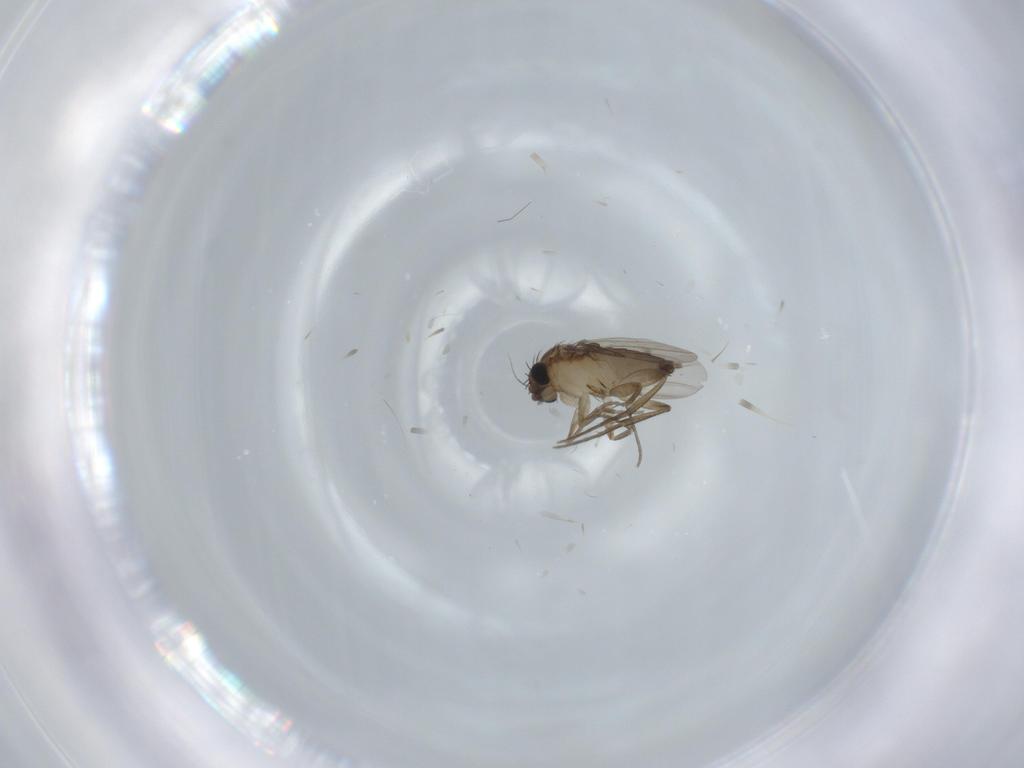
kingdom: Animalia
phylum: Arthropoda
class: Insecta
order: Diptera
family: Phoridae
